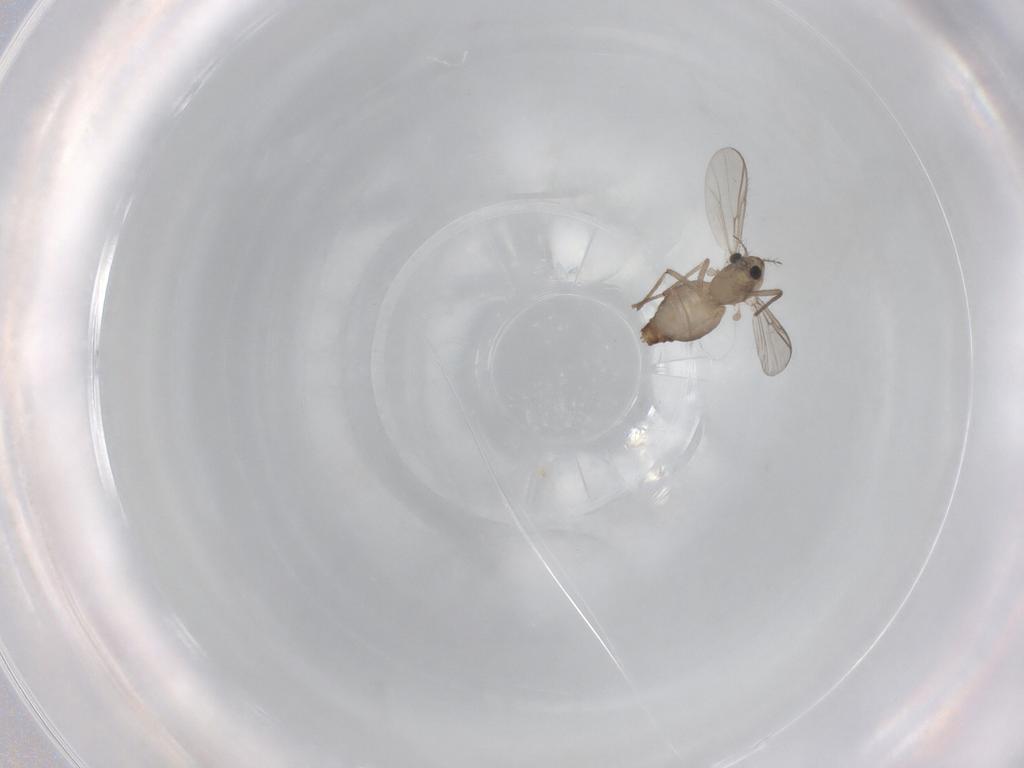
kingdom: Animalia
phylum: Arthropoda
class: Insecta
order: Diptera
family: Chironomidae
